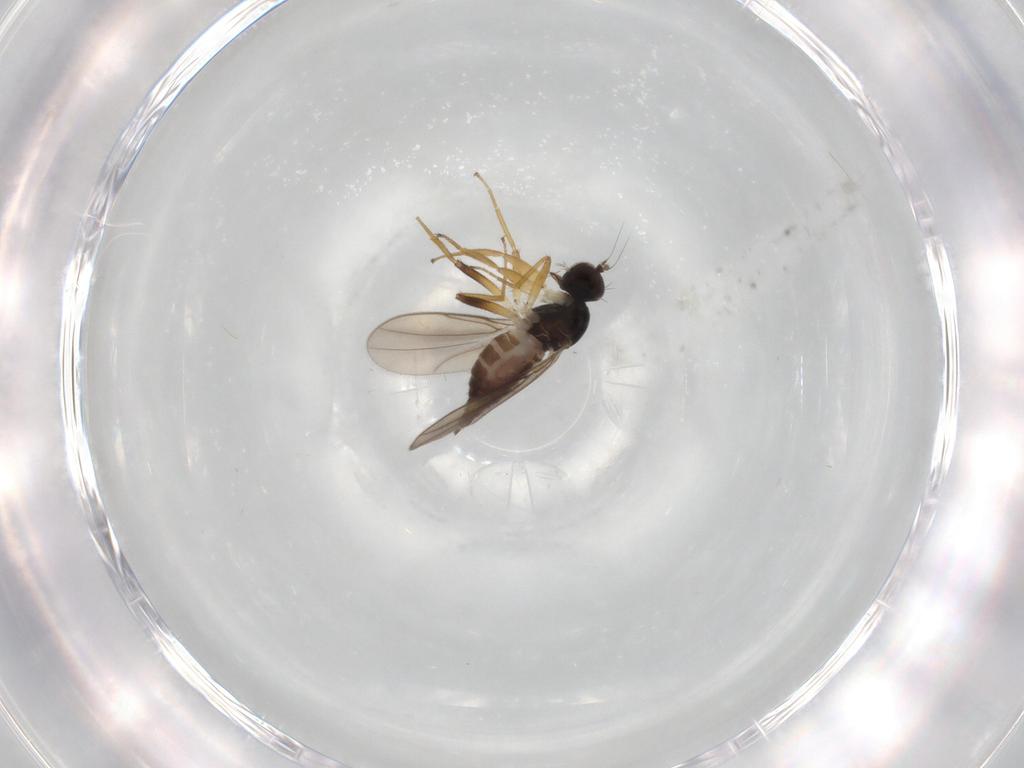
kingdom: Animalia
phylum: Arthropoda
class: Insecta
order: Diptera
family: Hybotidae
